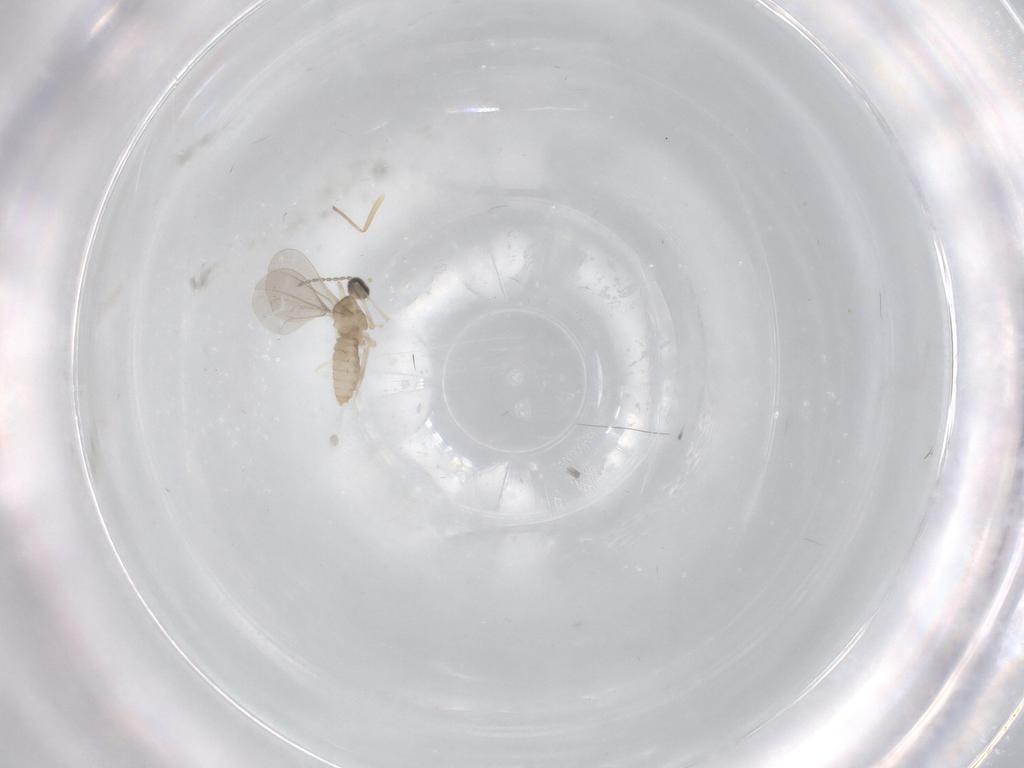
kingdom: Animalia
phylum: Arthropoda
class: Insecta
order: Diptera
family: Cecidomyiidae
